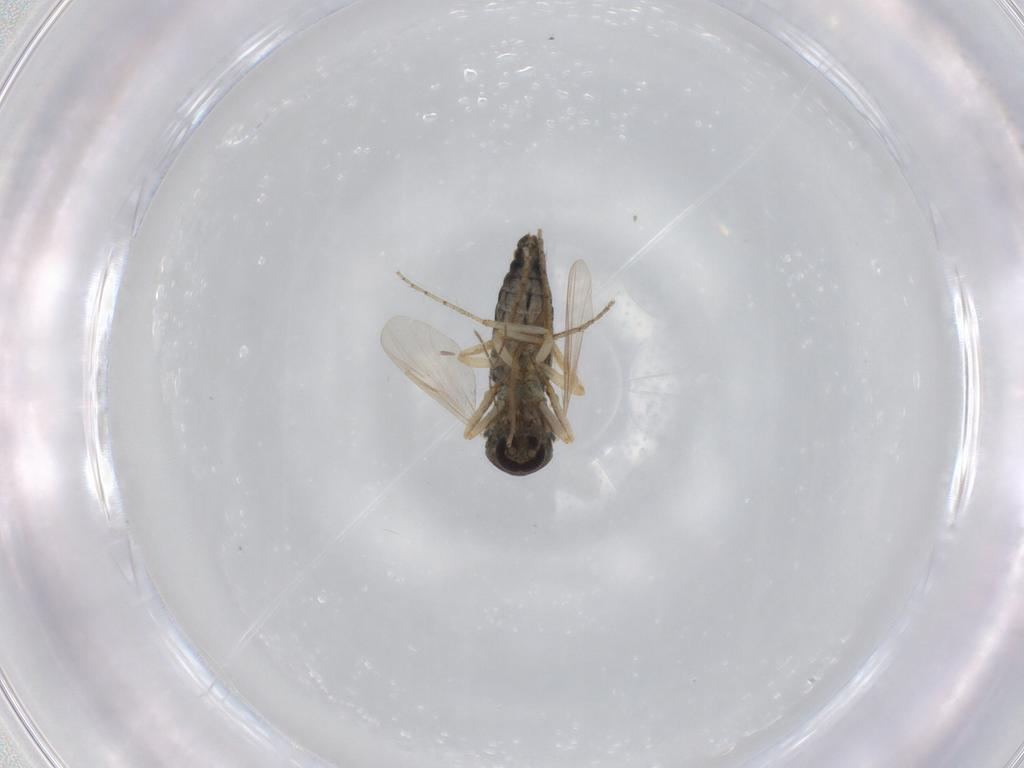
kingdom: Animalia
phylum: Arthropoda
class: Insecta
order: Diptera
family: Ceratopogonidae
